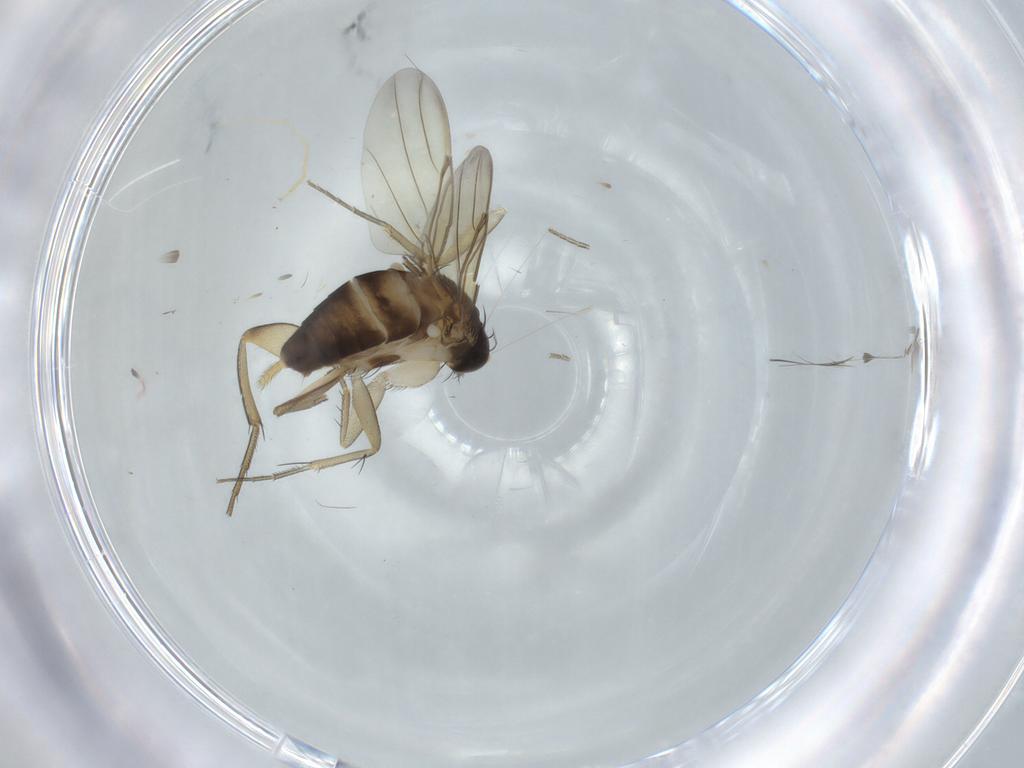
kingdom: Animalia
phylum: Arthropoda
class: Insecta
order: Diptera
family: Phoridae
